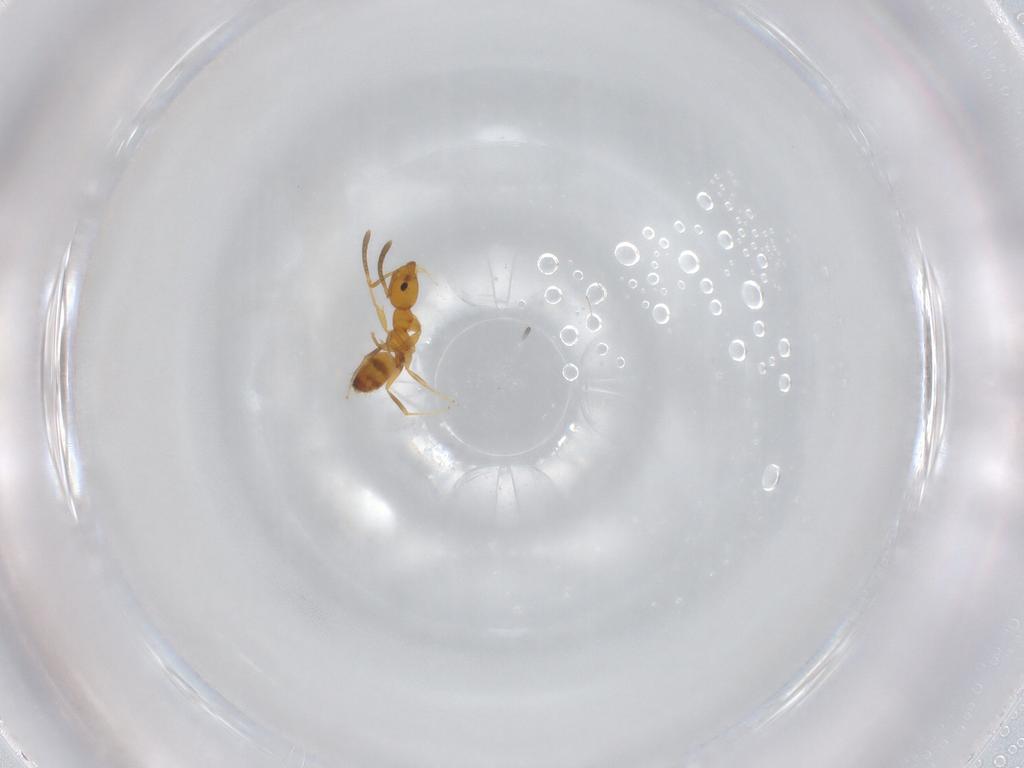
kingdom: Animalia
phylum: Arthropoda
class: Insecta
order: Hymenoptera
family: Formicidae
